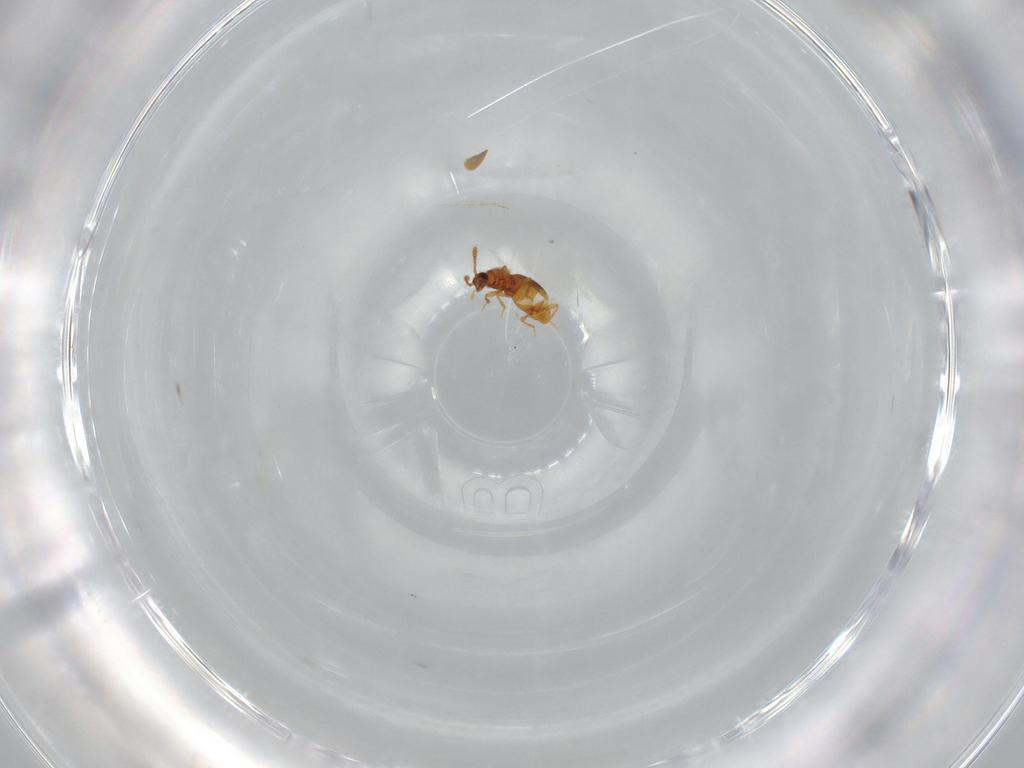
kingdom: Animalia
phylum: Arthropoda
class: Insecta
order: Coleoptera
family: Staphylinidae
